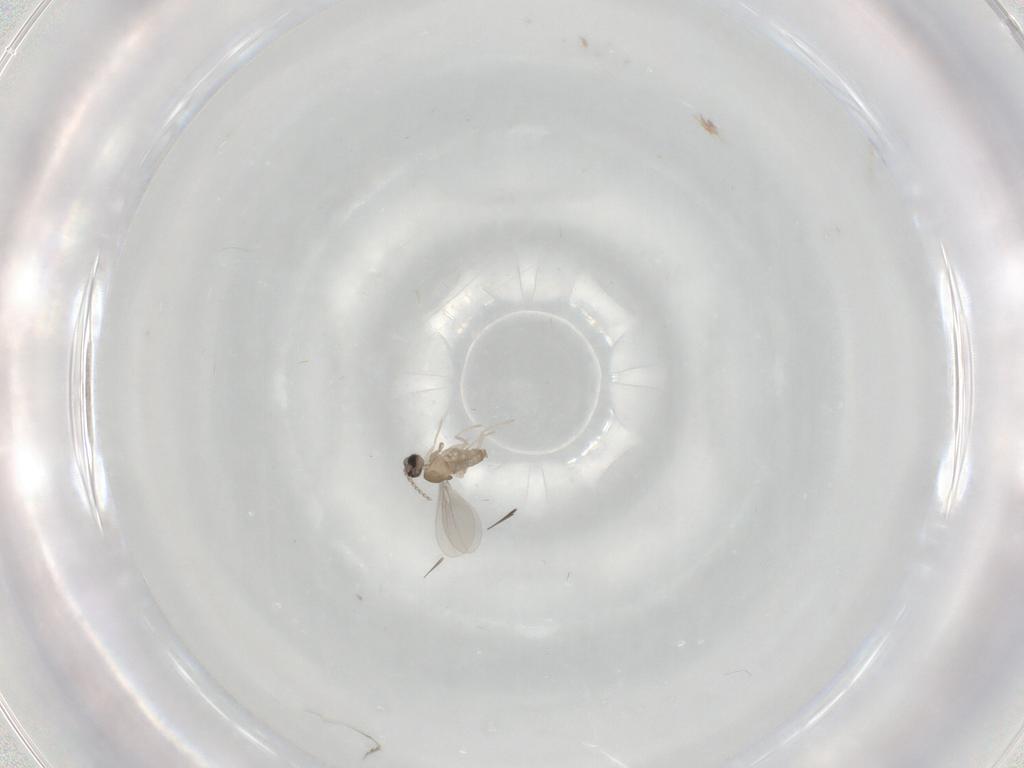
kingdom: Animalia
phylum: Arthropoda
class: Insecta
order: Diptera
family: Cecidomyiidae
